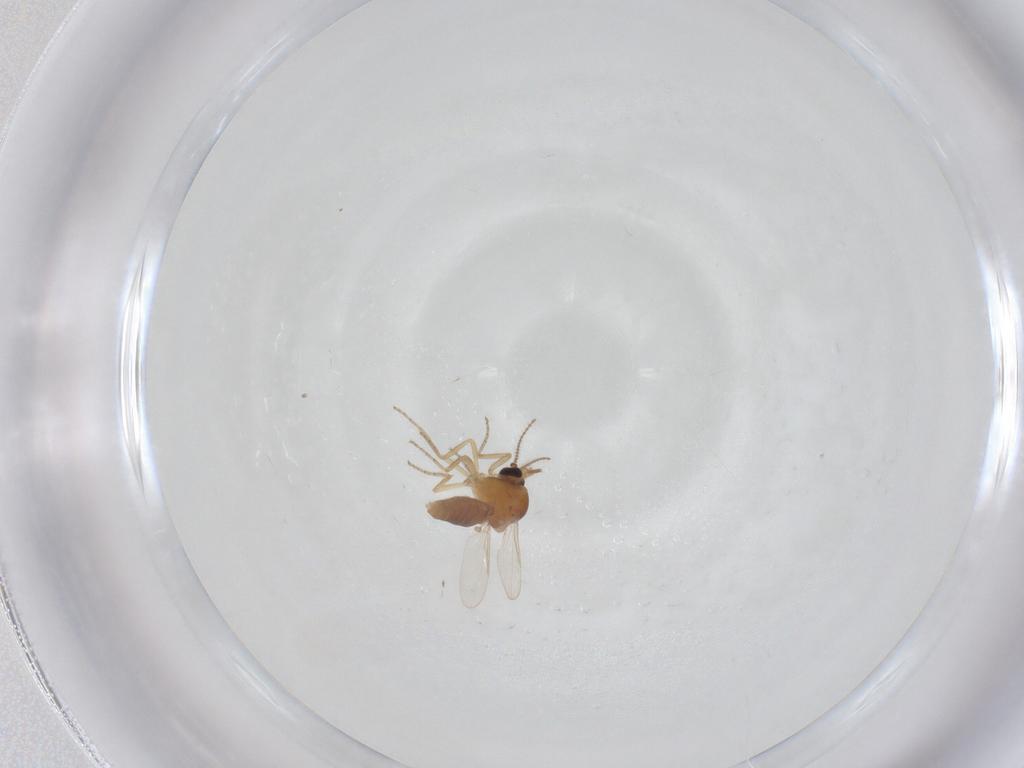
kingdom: Animalia
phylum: Arthropoda
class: Insecta
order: Diptera
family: Ceratopogonidae
